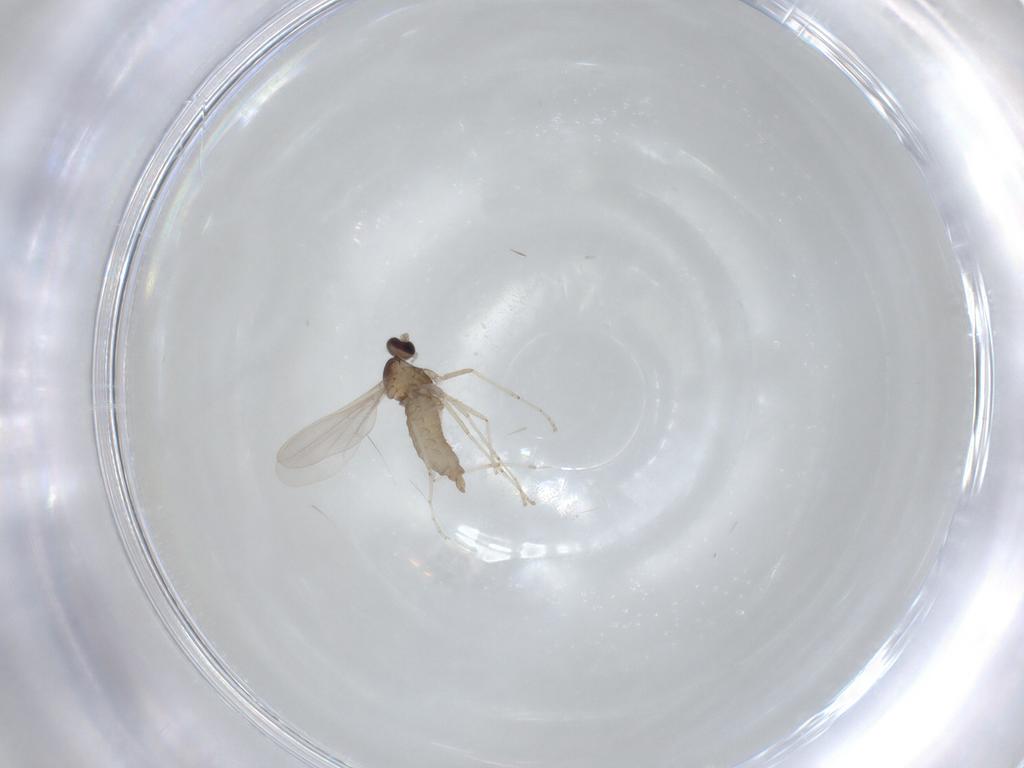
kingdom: Animalia
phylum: Arthropoda
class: Insecta
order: Diptera
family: Cecidomyiidae
